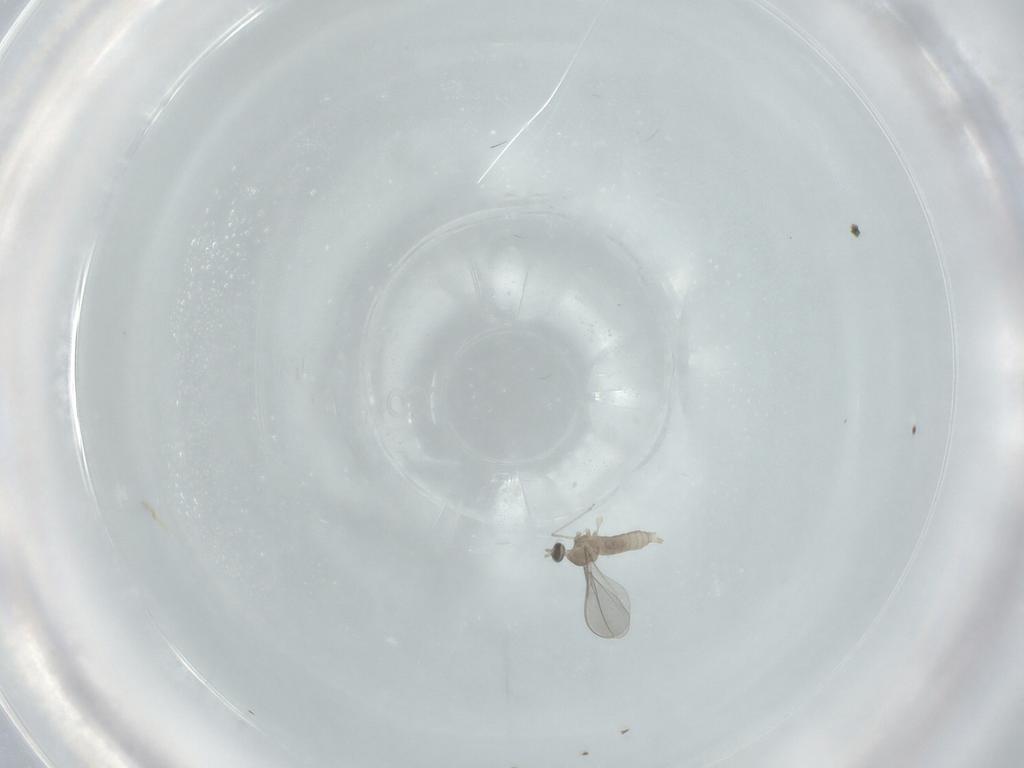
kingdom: Animalia
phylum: Arthropoda
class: Insecta
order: Diptera
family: Cecidomyiidae
